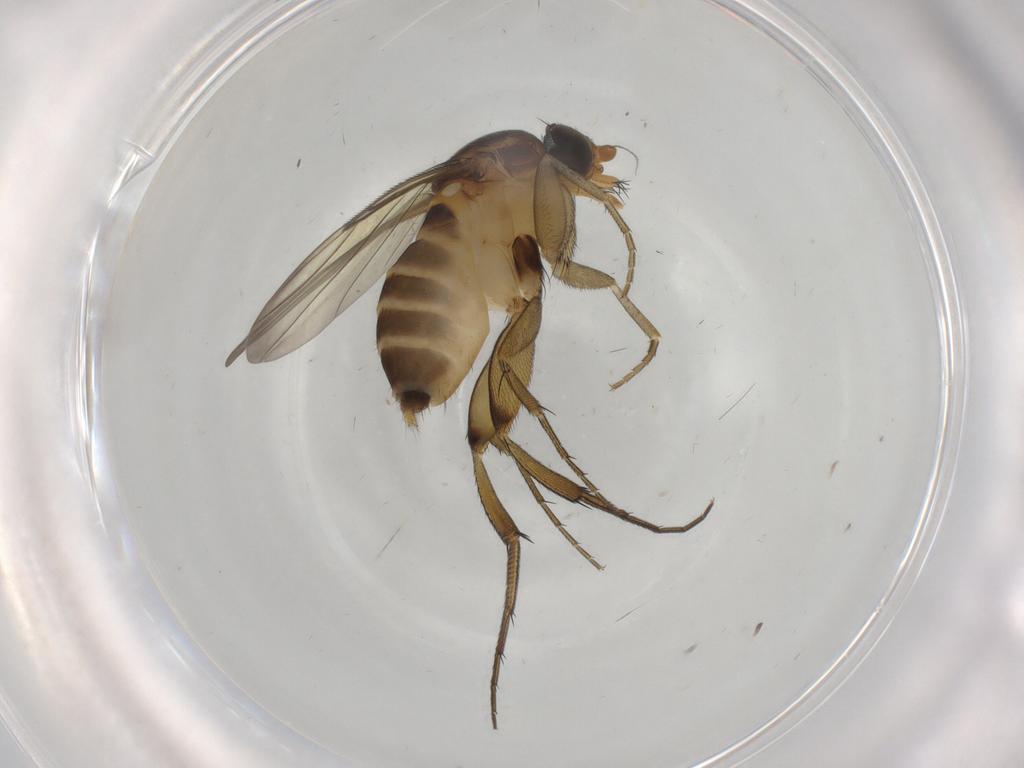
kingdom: Animalia
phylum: Arthropoda
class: Insecta
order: Diptera
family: Phoridae
